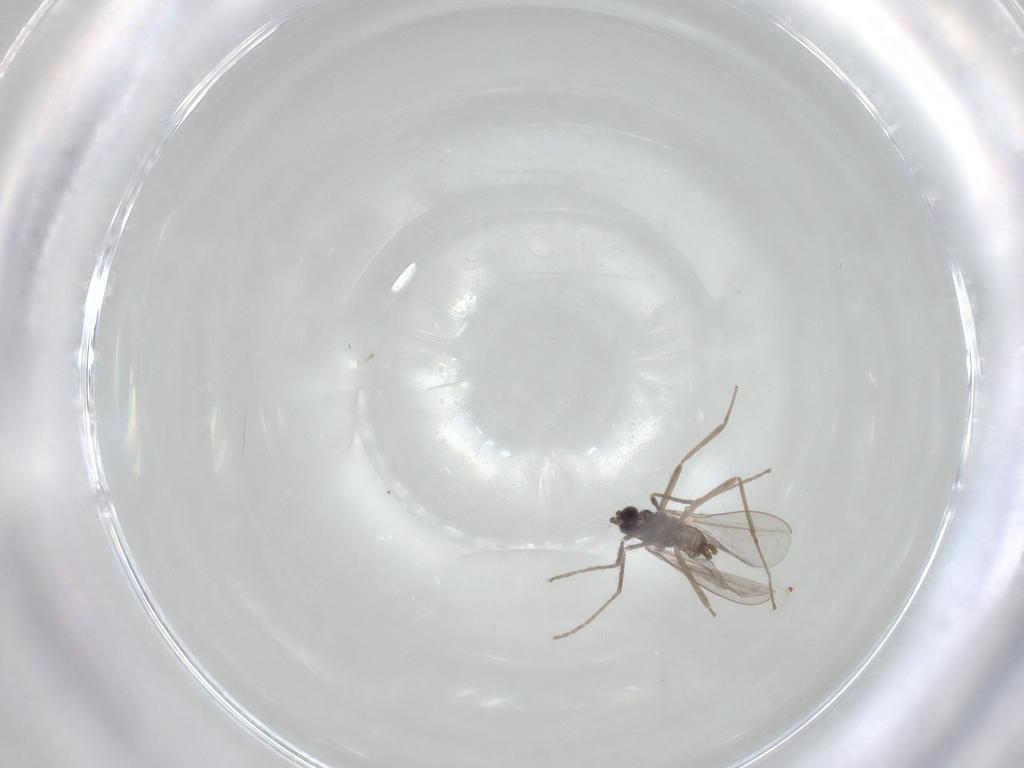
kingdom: Animalia
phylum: Arthropoda
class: Insecta
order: Diptera
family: Cecidomyiidae
